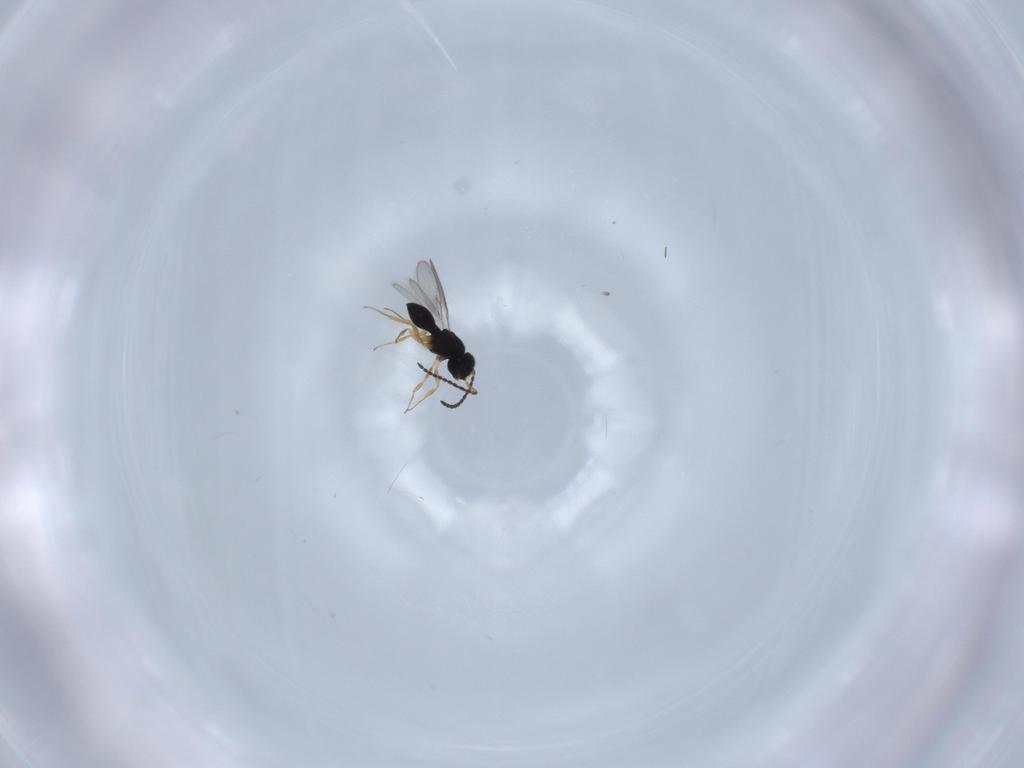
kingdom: Animalia
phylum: Arthropoda
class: Insecta
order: Hymenoptera
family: Scelionidae
